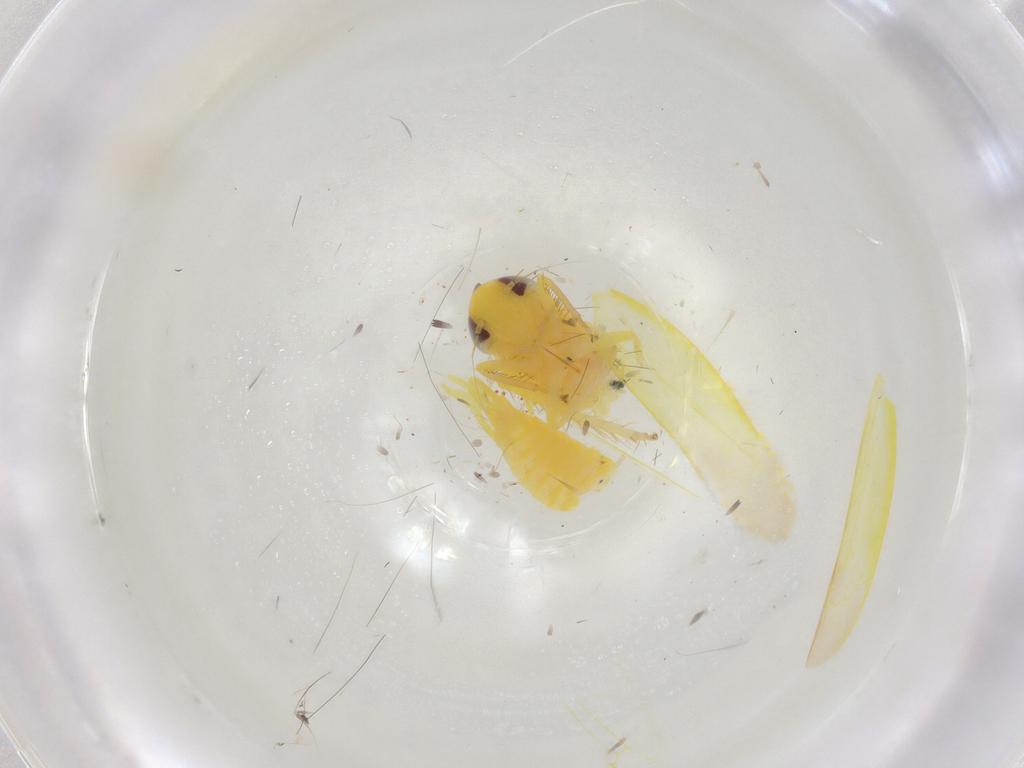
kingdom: Animalia
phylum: Arthropoda
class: Insecta
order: Hemiptera
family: Cicadellidae
